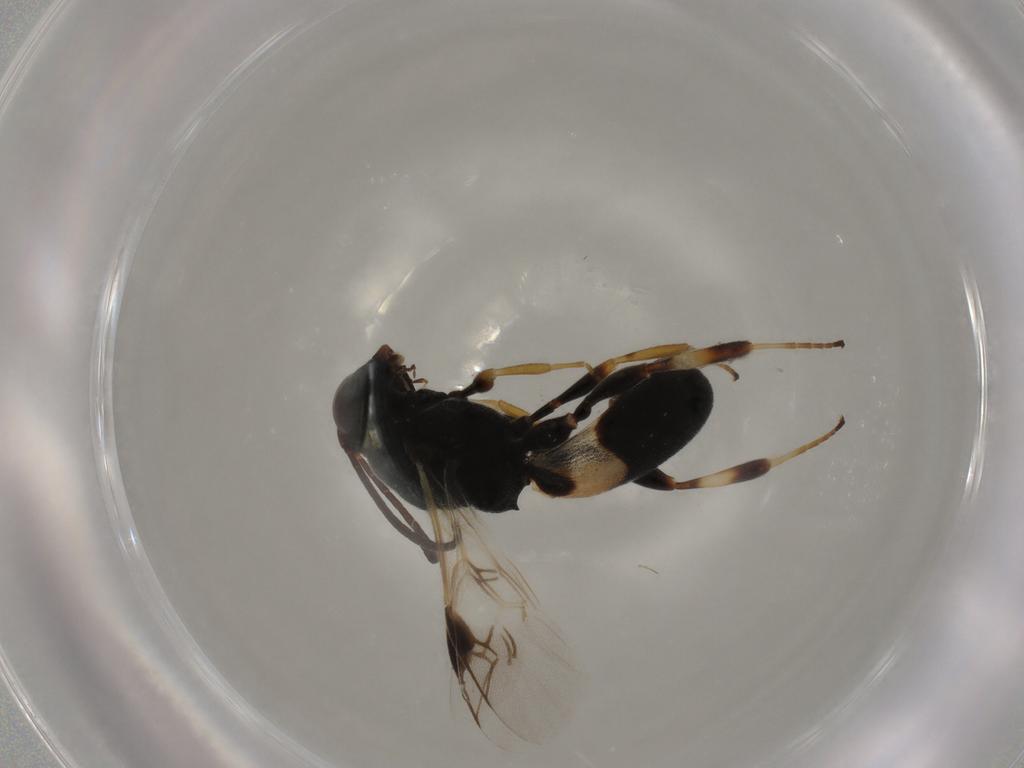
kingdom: Animalia
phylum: Arthropoda
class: Insecta
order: Hymenoptera
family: Braconidae
